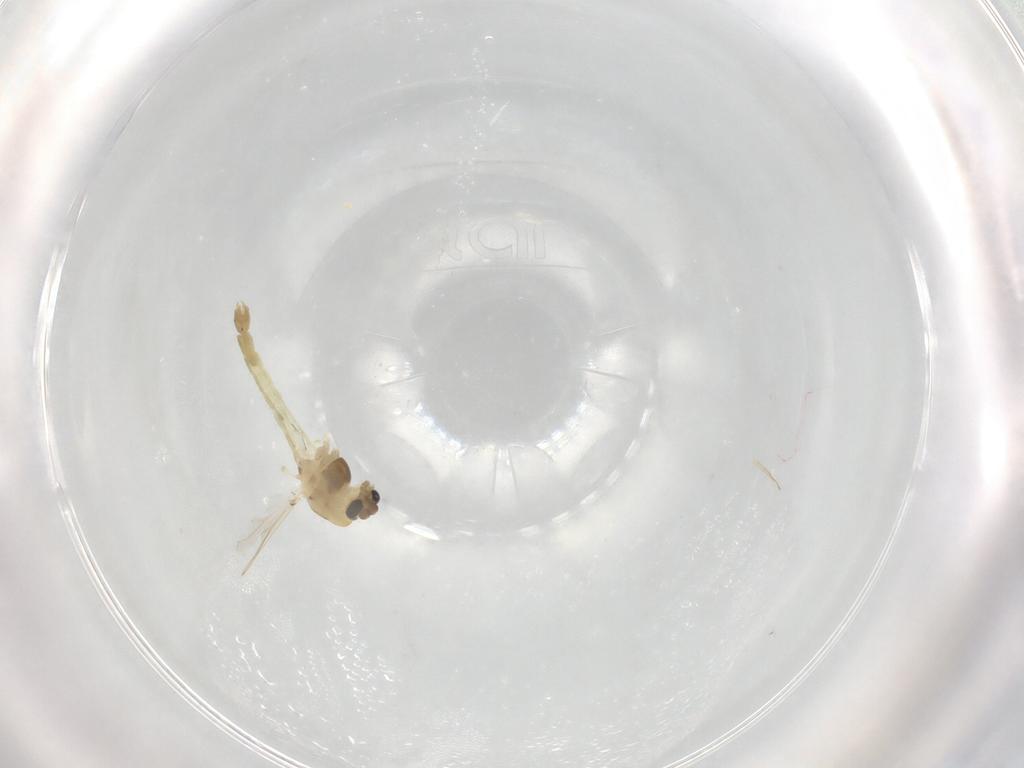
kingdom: Animalia
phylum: Arthropoda
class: Insecta
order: Diptera
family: Chironomidae
